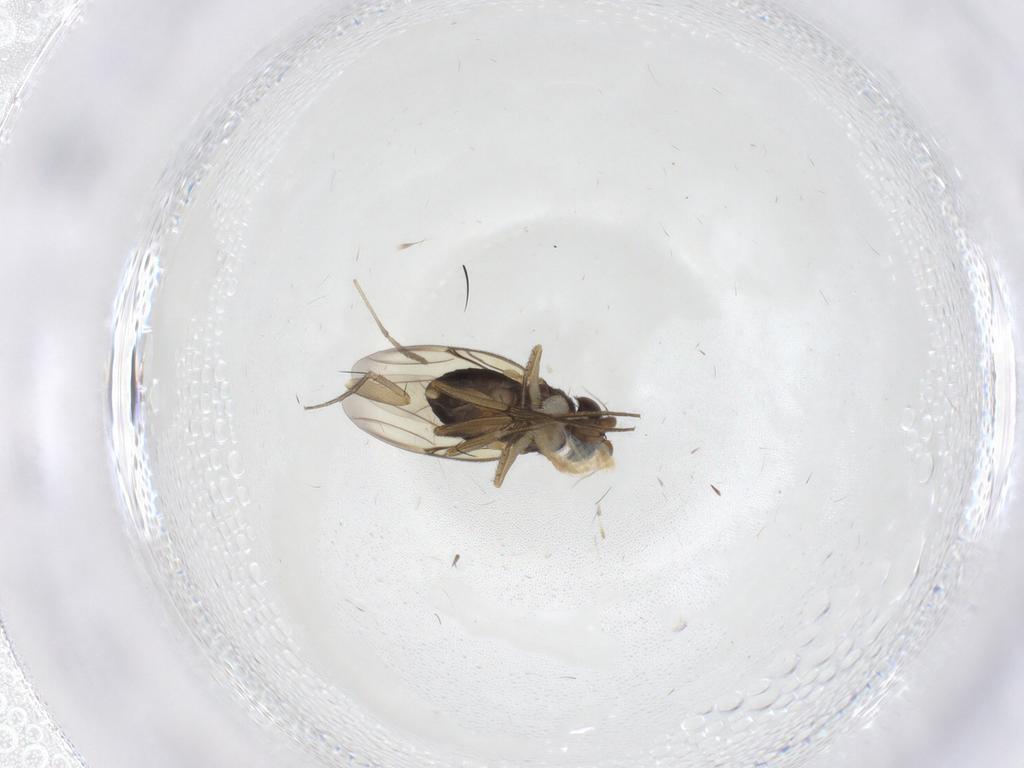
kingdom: Animalia
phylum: Arthropoda
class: Insecta
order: Diptera
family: Phoridae
